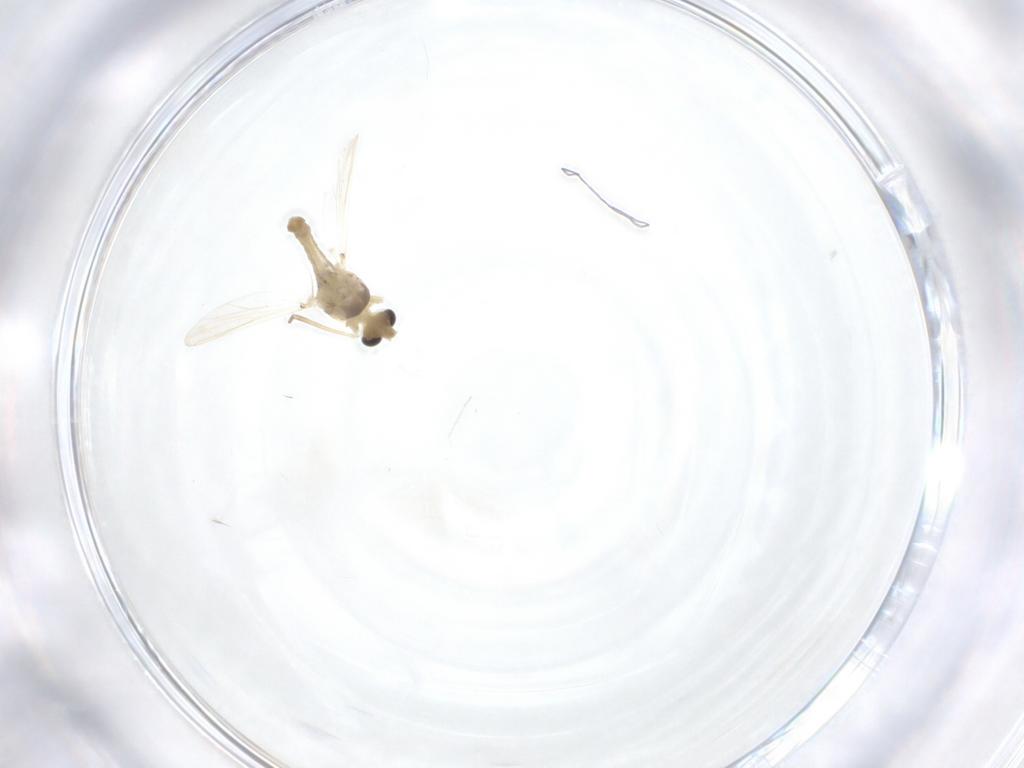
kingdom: Animalia
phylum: Arthropoda
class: Insecta
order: Diptera
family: Chironomidae
